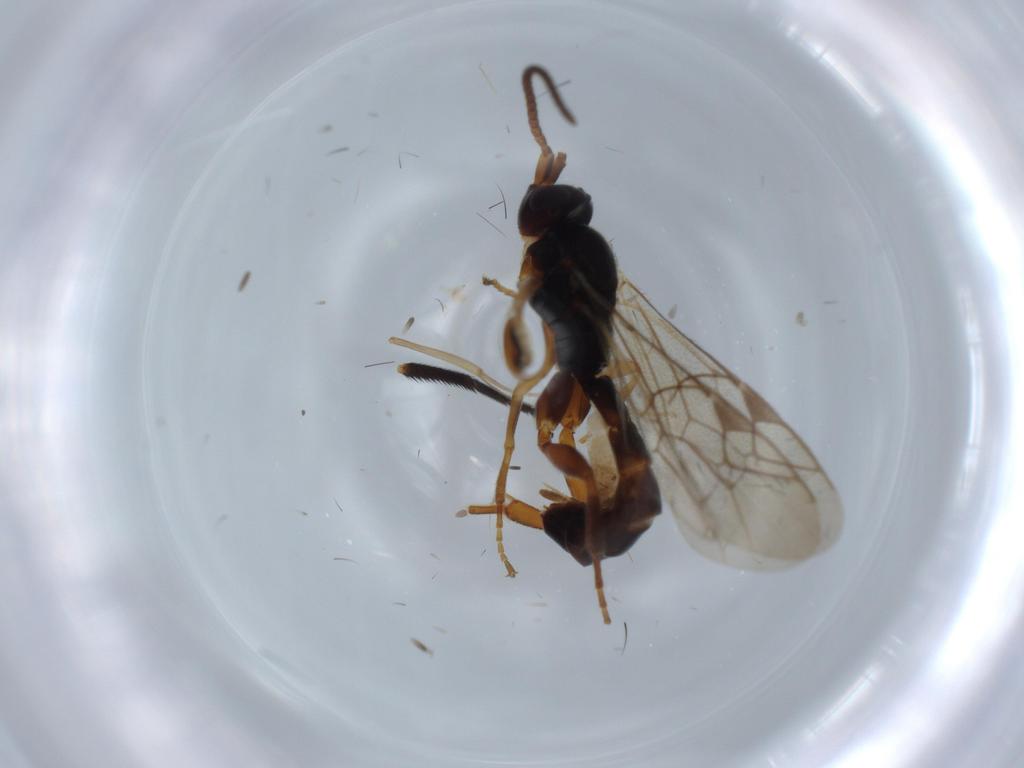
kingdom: Animalia
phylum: Arthropoda
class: Insecta
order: Hymenoptera
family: Ichneumonidae
